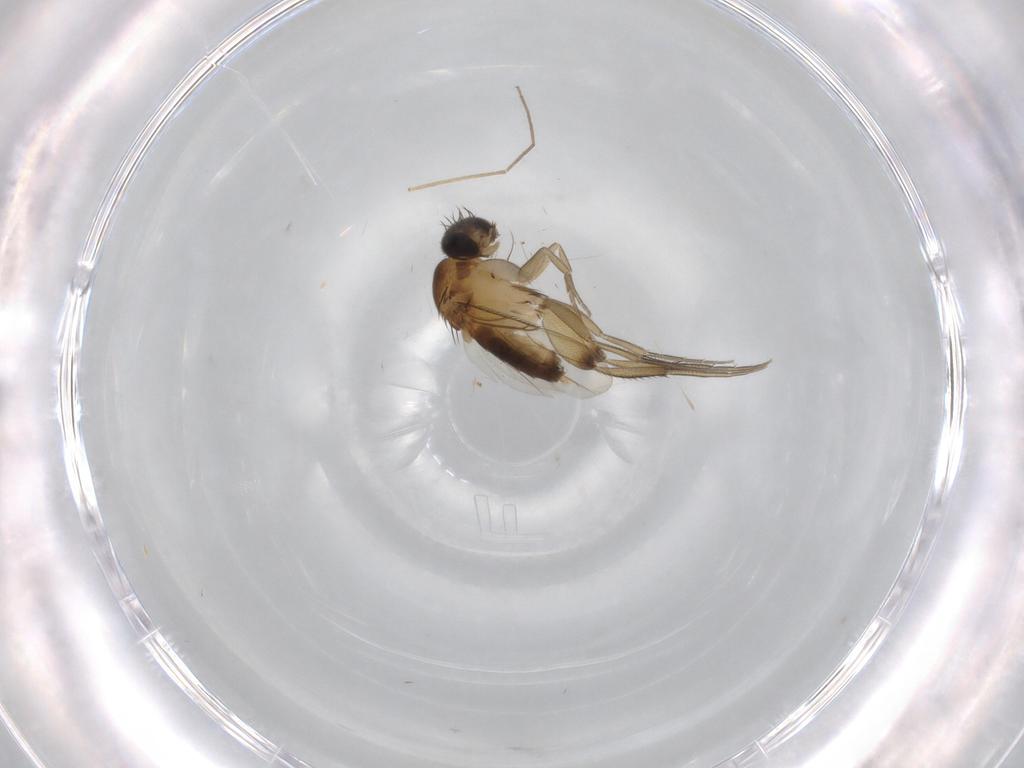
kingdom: Animalia
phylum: Arthropoda
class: Insecta
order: Diptera
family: Phoridae
